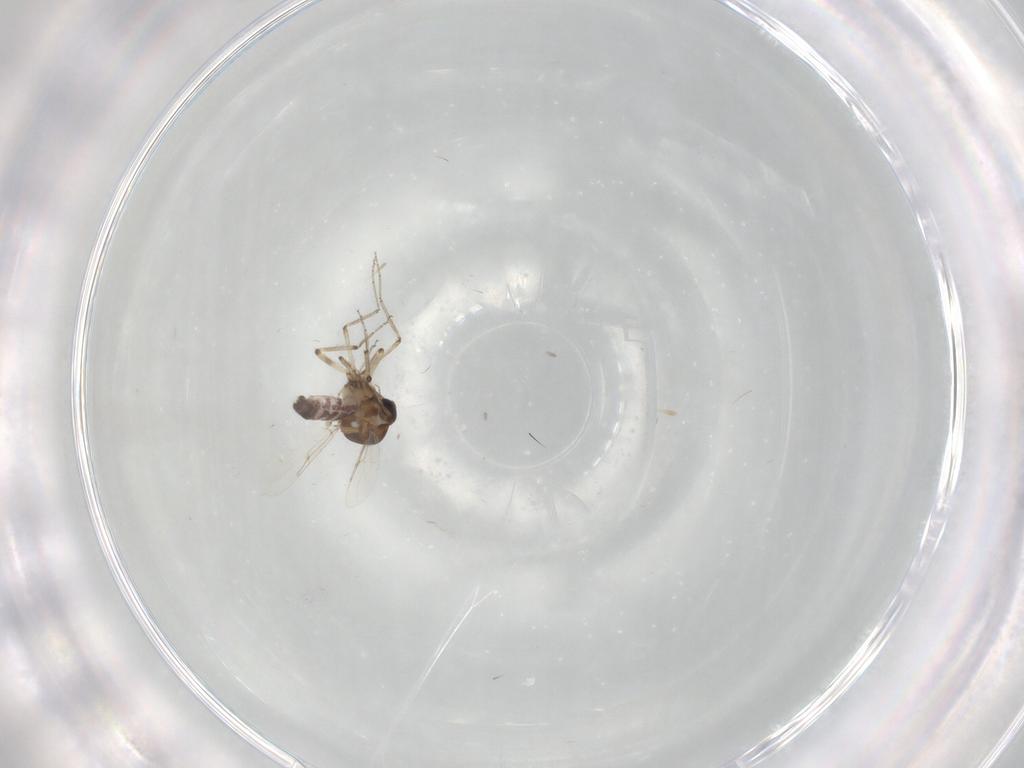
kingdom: Animalia
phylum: Arthropoda
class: Insecta
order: Diptera
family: Ceratopogonidae
